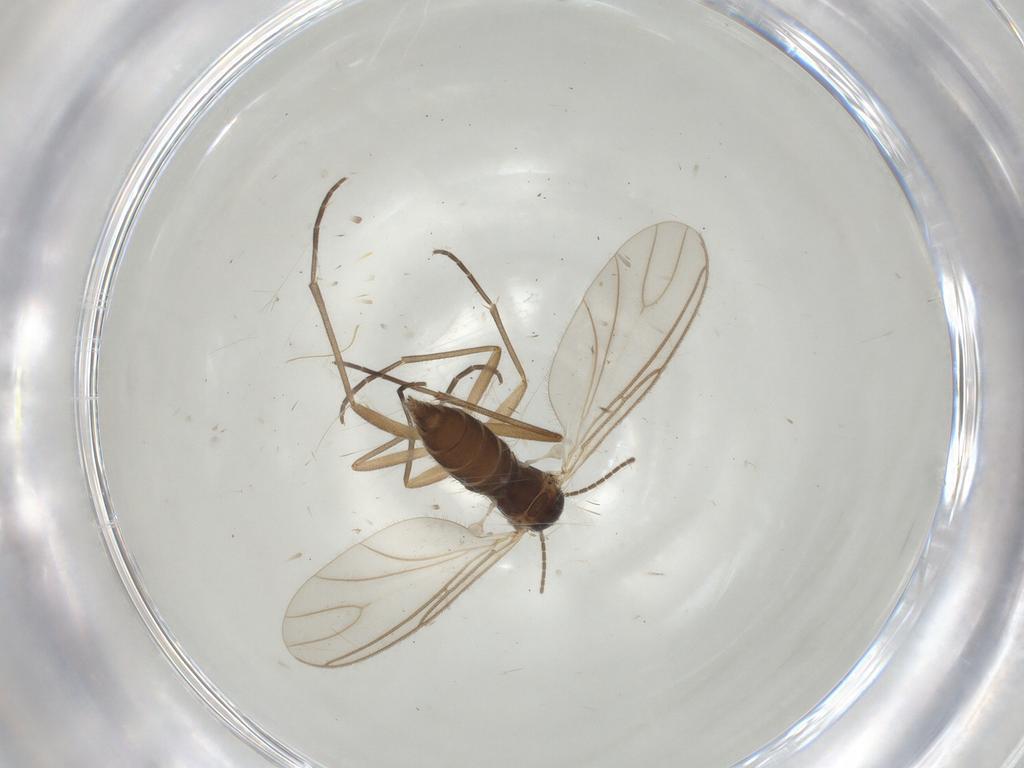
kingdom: Animalia
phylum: Arthropoda
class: Insecta
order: Diptera
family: Sciaridae
